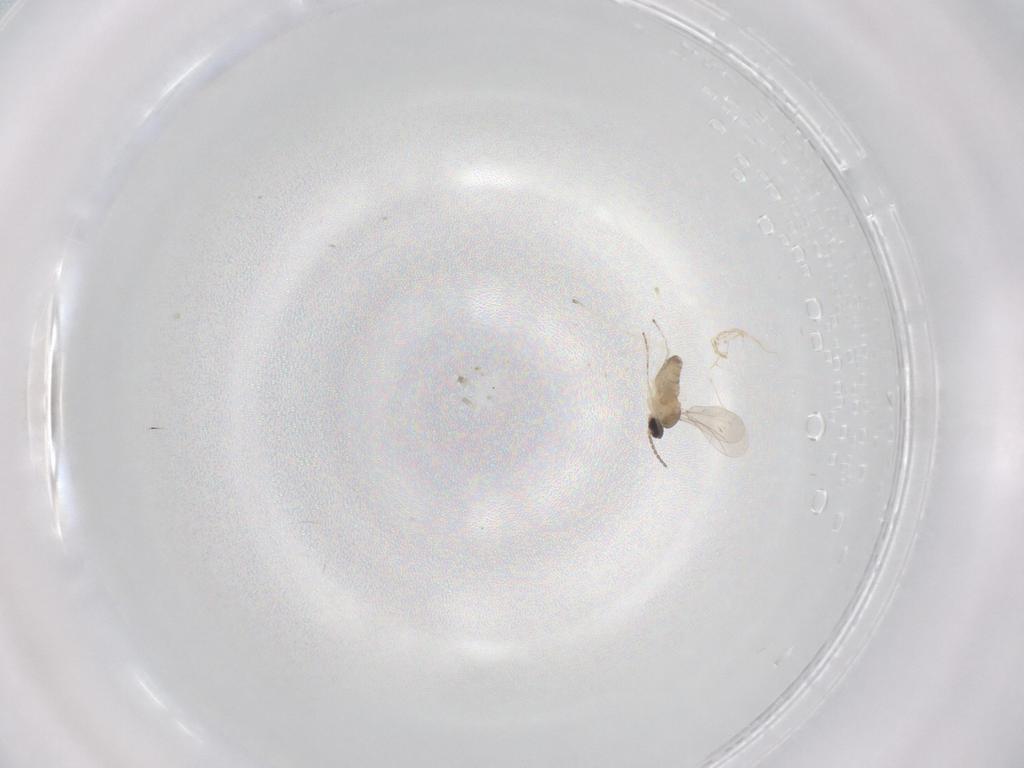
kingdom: Animalia
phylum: Arthropoda
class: Insecta
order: Diptera
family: Cecidomyiidae
